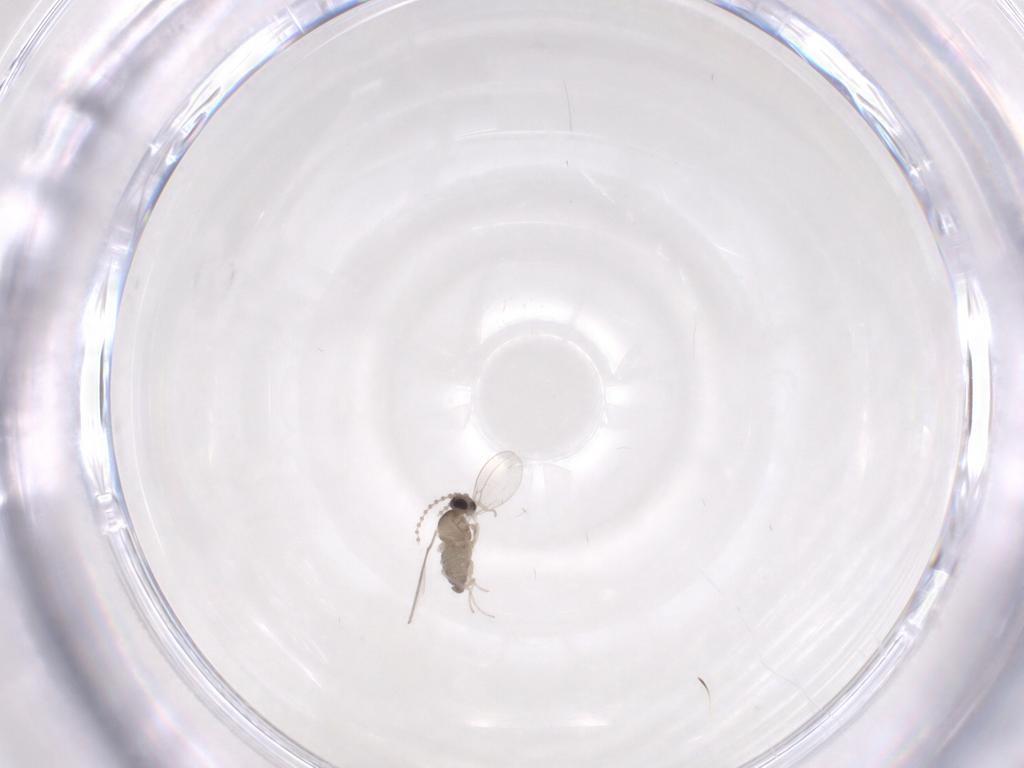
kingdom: Animalia
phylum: Arthropoda
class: Insecta
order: Diptera
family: Cecidomyiidae
